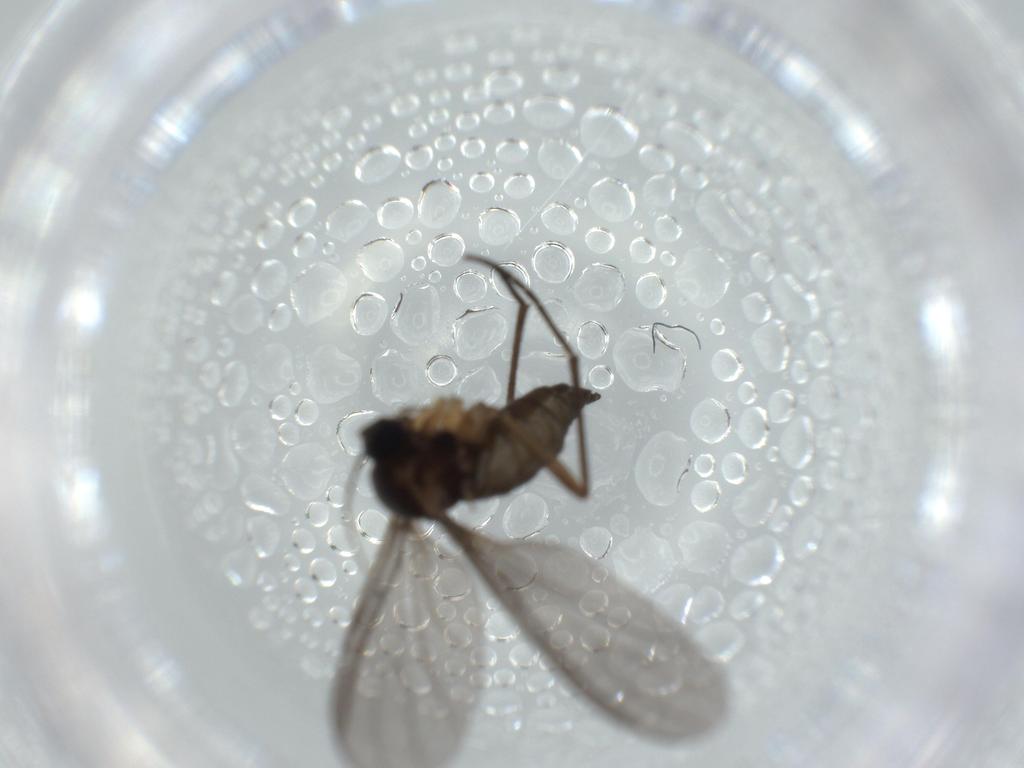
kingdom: Animalia
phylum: Arthropoda
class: Insecta
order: Diptera
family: Sciaridae
